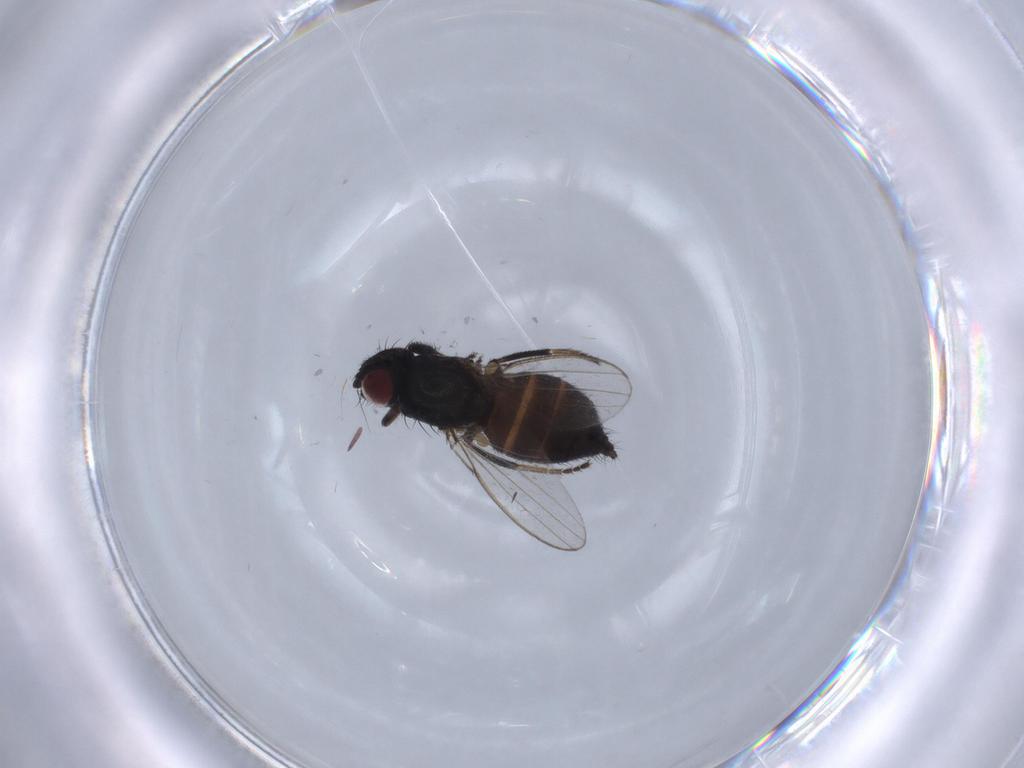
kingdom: Animalia
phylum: Arthropoda
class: Insecta
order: Diptera
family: Milichiidae
